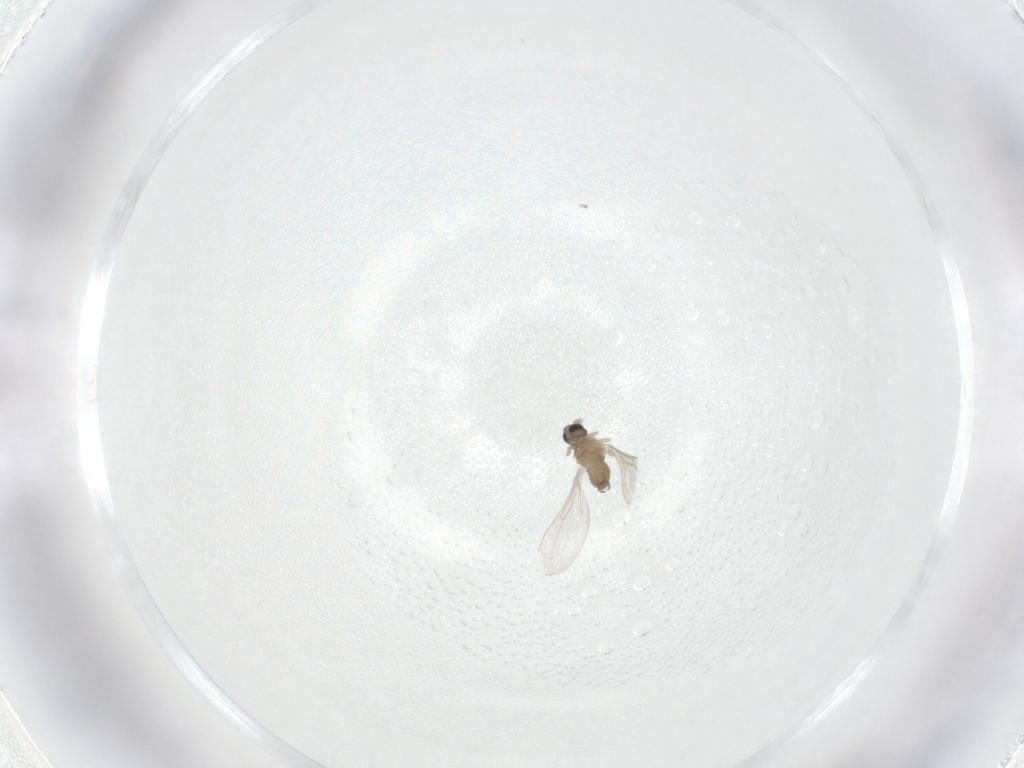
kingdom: Animalia
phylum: Arthropoda
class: Insecta
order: Diptera
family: Cecidomyiidae
